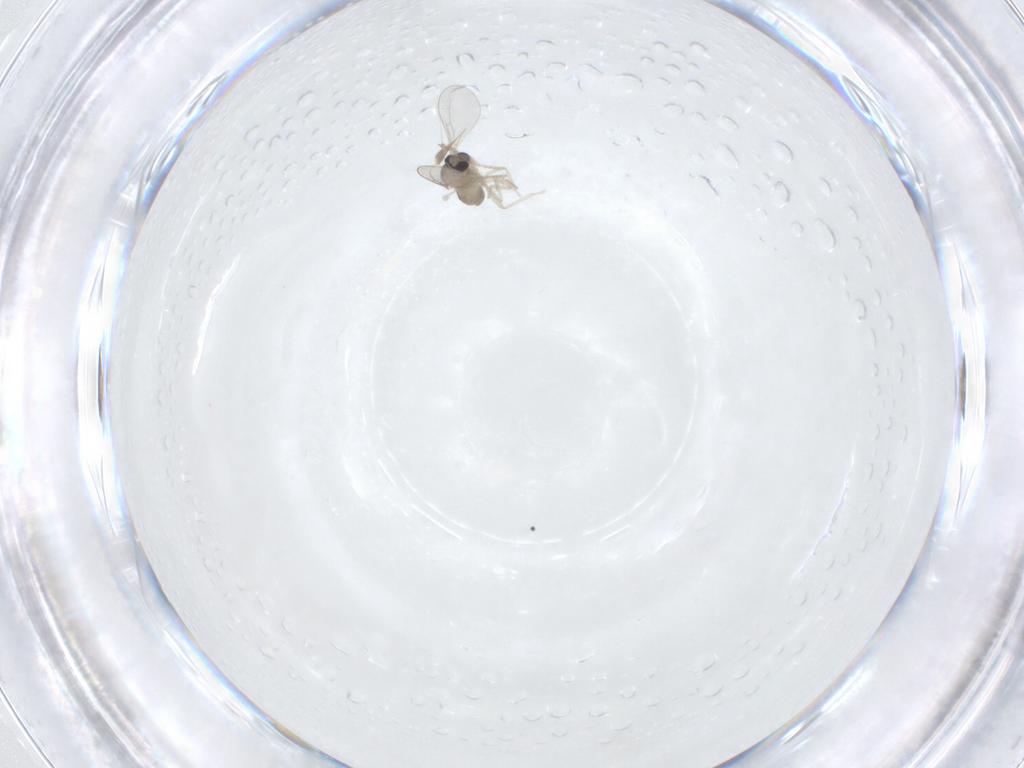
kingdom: Animalia
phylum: Arthropoda
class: Insecta
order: Diptera
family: Cecidomyiidae
